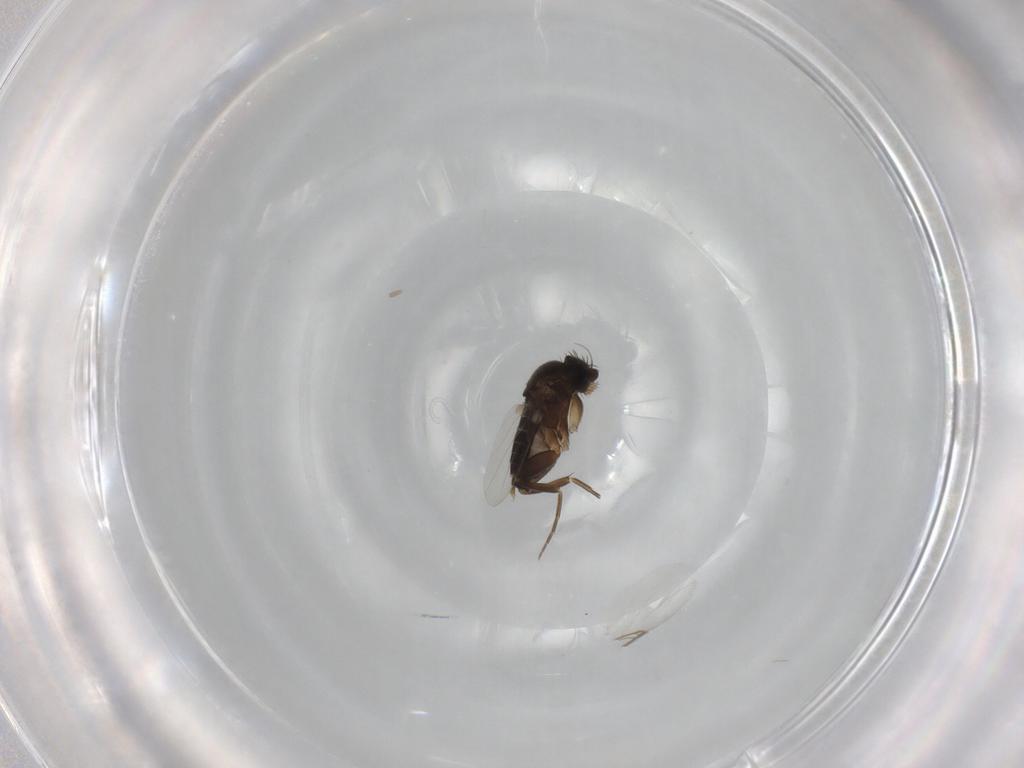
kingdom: Animalia
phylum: Arthropoda
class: Insecta
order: Diptera
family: Phoridae
